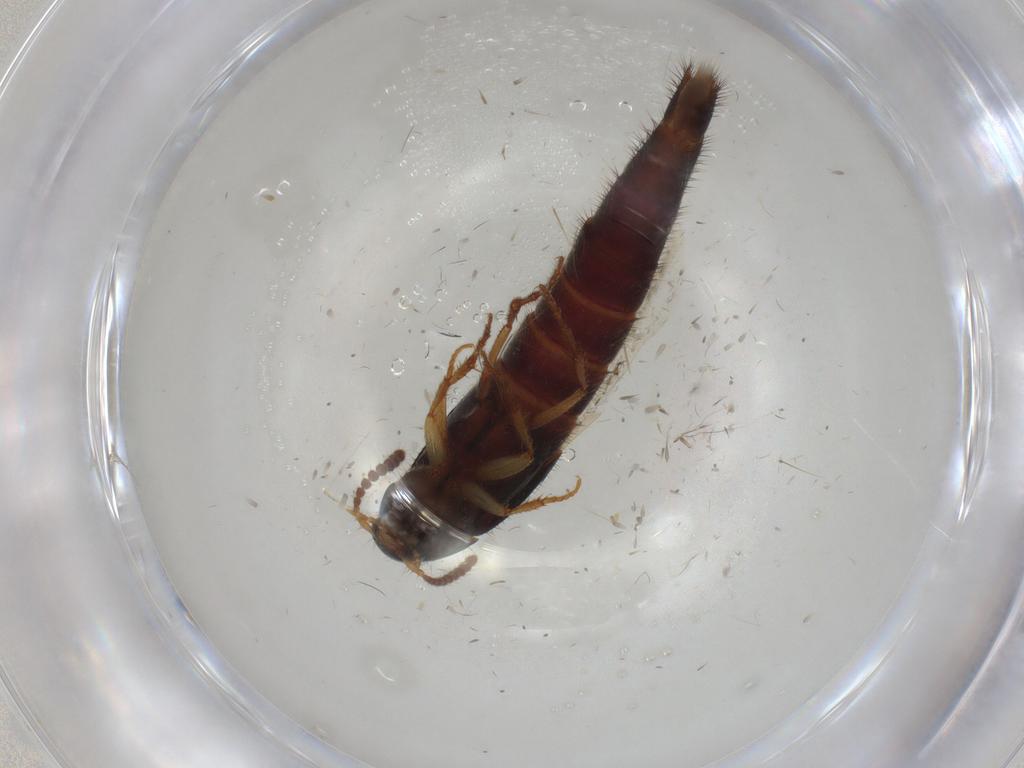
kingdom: Animalia
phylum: Arthropoda
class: Insecta
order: Coleoptera
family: Staphylinidae
